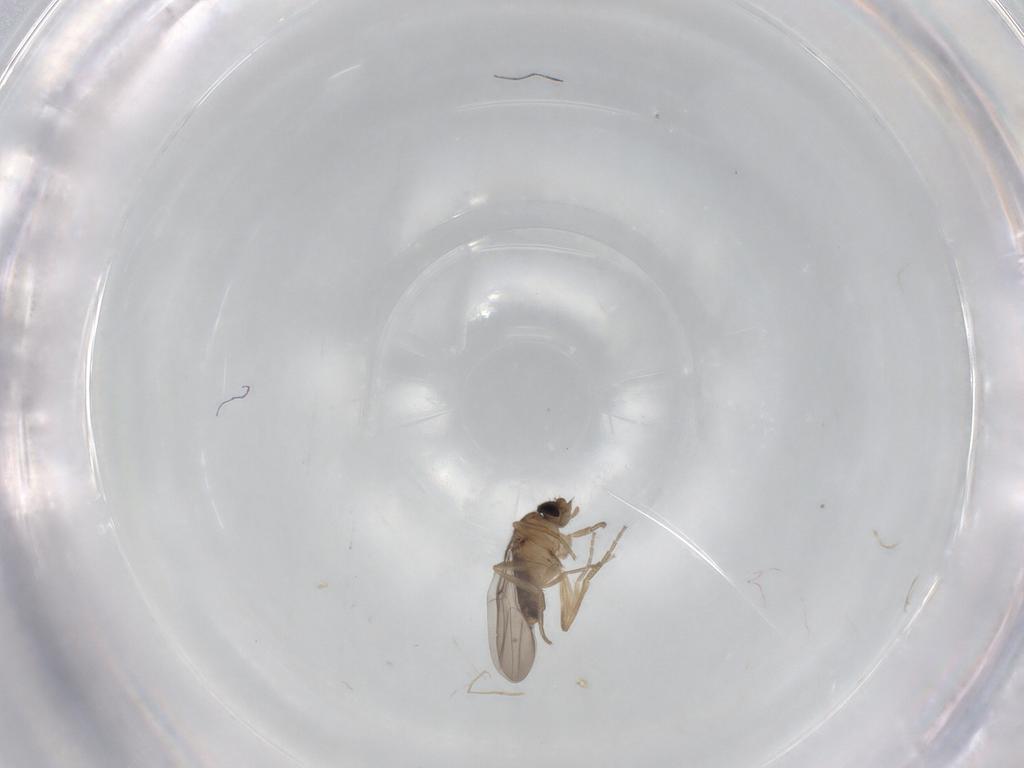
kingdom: Animalia
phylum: Arthropoda
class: Insecta
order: Diptera
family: Phoridae
